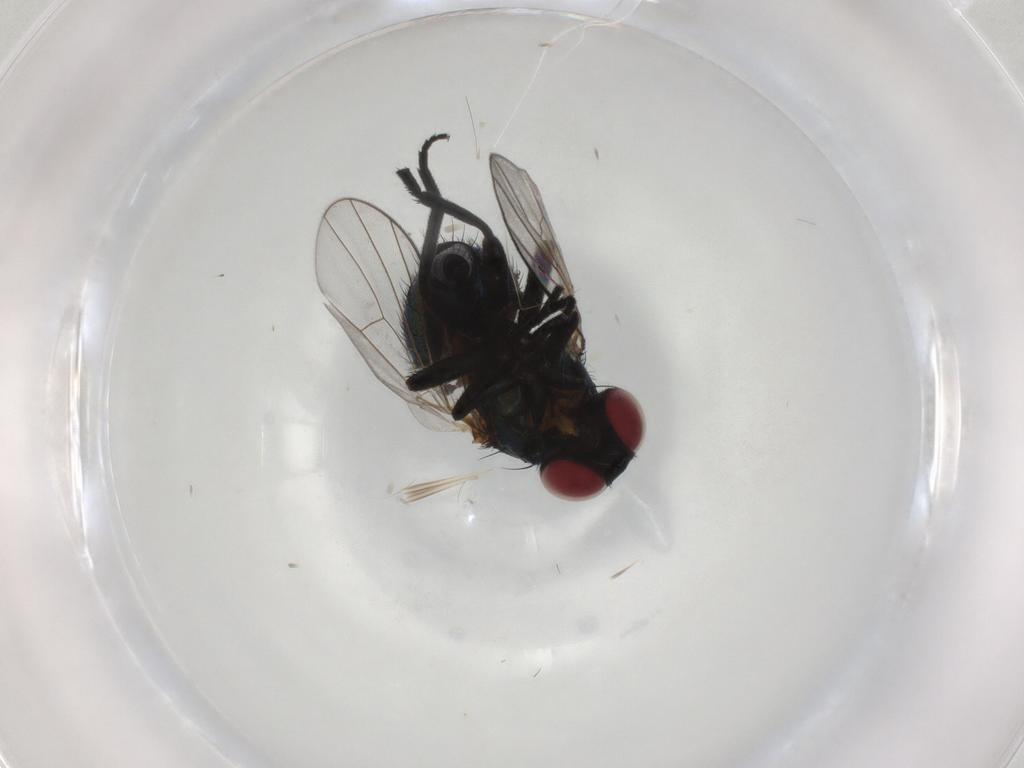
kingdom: Animalia
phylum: Arthropoda
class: Insecta
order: Diptera
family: Agromyzidae
